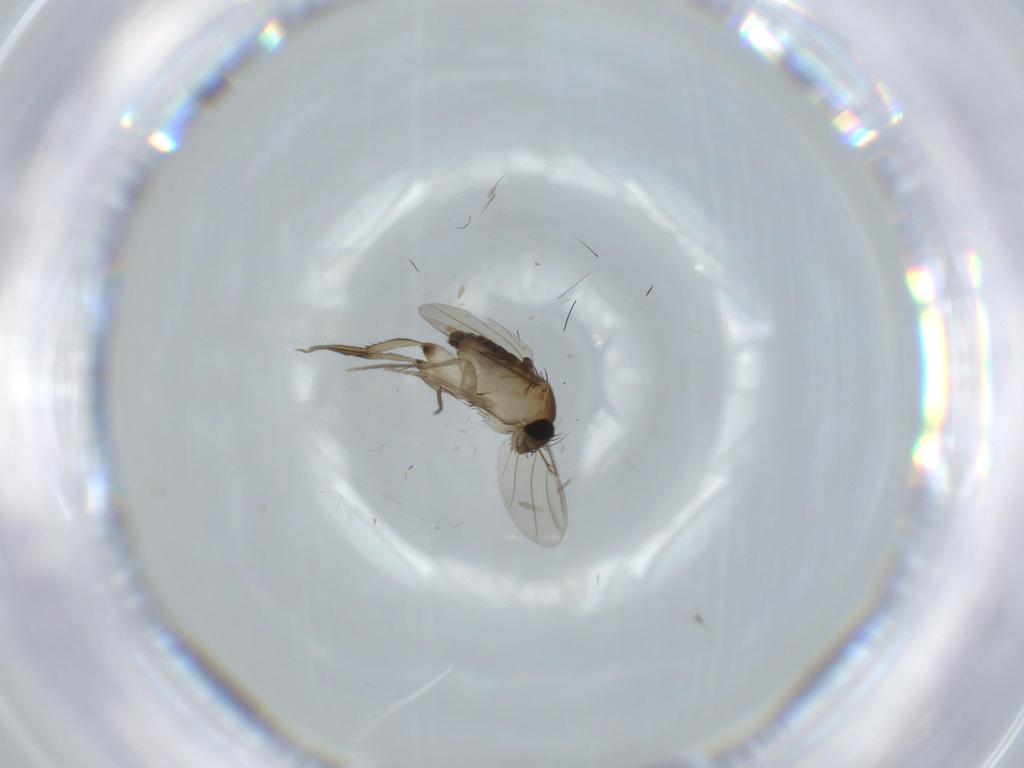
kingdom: Animalia
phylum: Arthropoda
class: Insecta
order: Diptera
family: Phoridae
